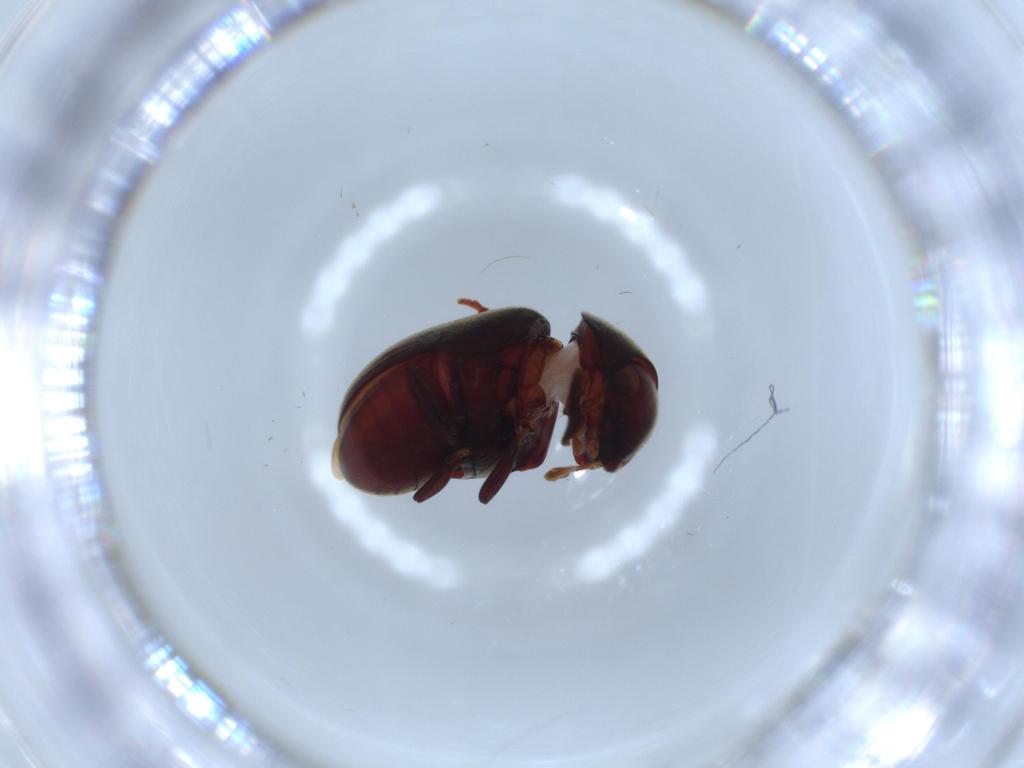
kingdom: Animalia
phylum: Arthropoda
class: Insecta
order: Coleoptera
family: Ptinidae
